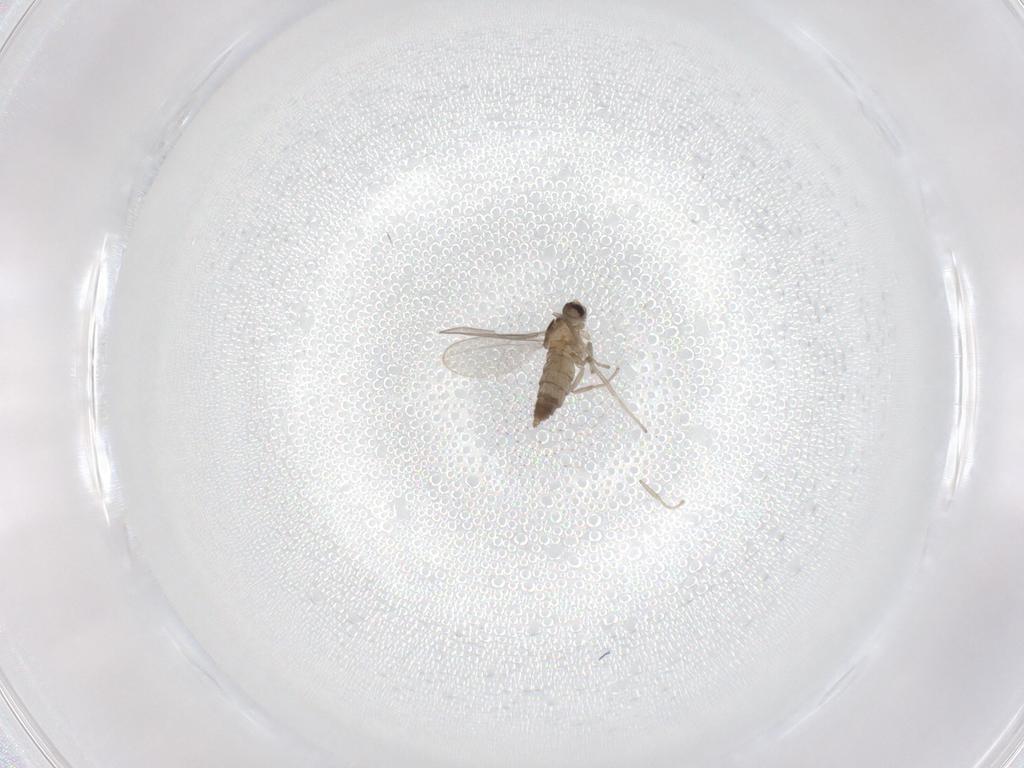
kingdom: Animalia
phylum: Arthropoda
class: Insecta
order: Diptera
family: Cecidomyiidae
